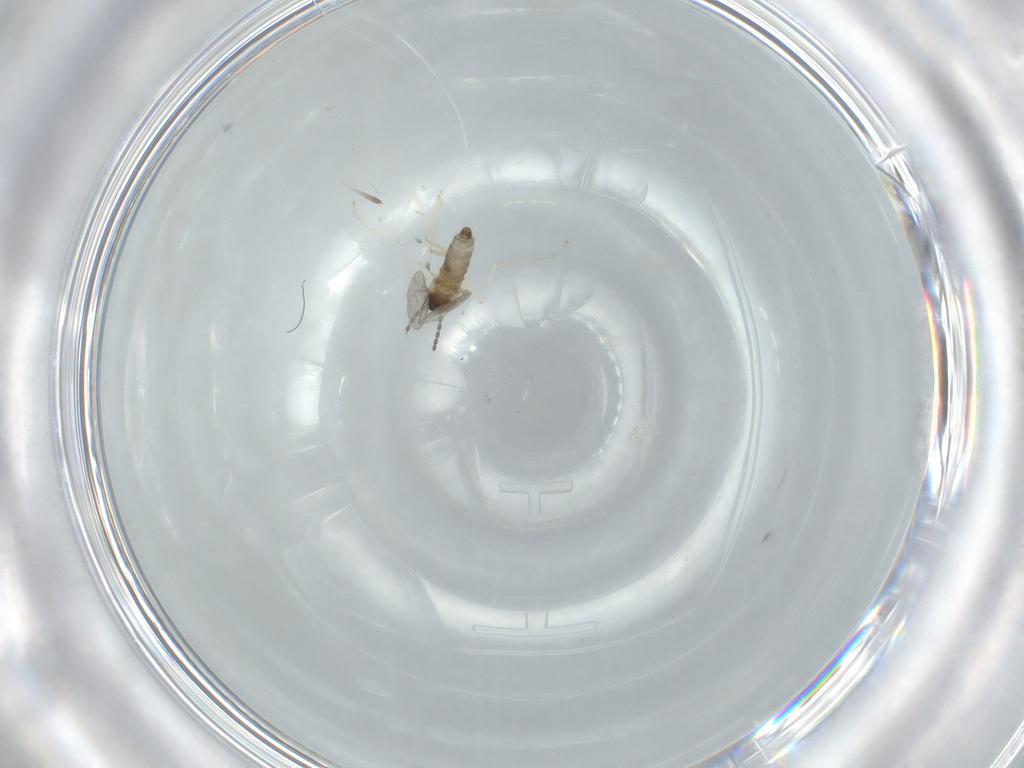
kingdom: Animalia
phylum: Arthropoda
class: Insecta
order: Diptera
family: Cecidomyiidae
